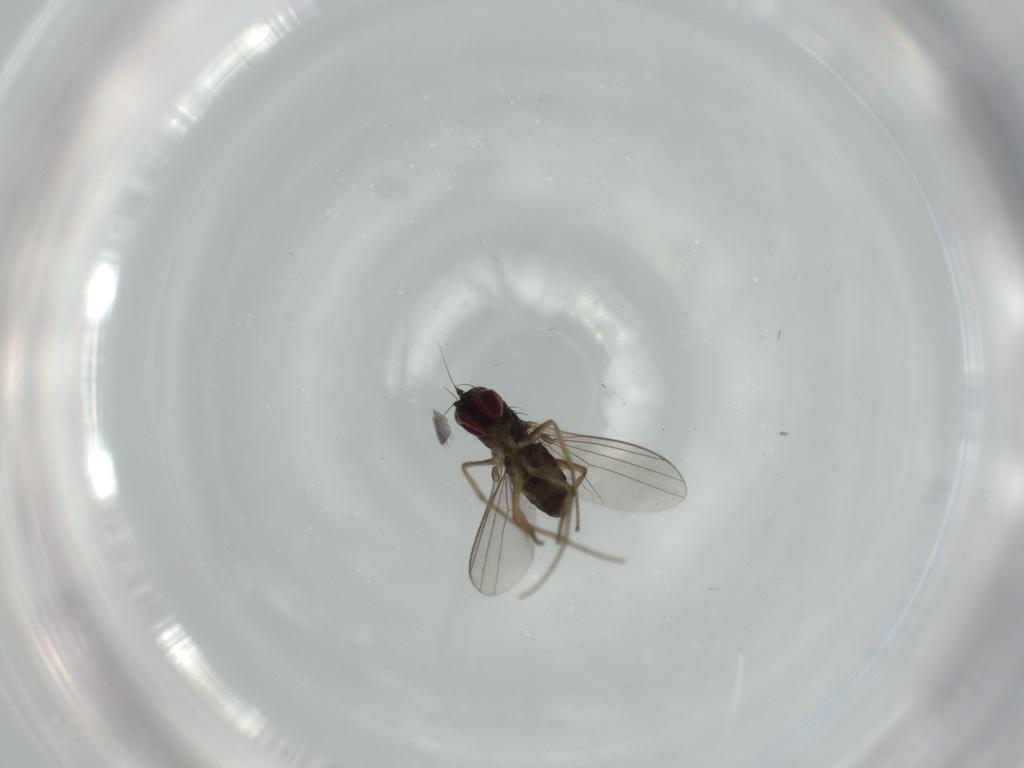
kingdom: Animalia
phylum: Arthropoda
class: Insecta
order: Diptera
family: Dolichopodidae
